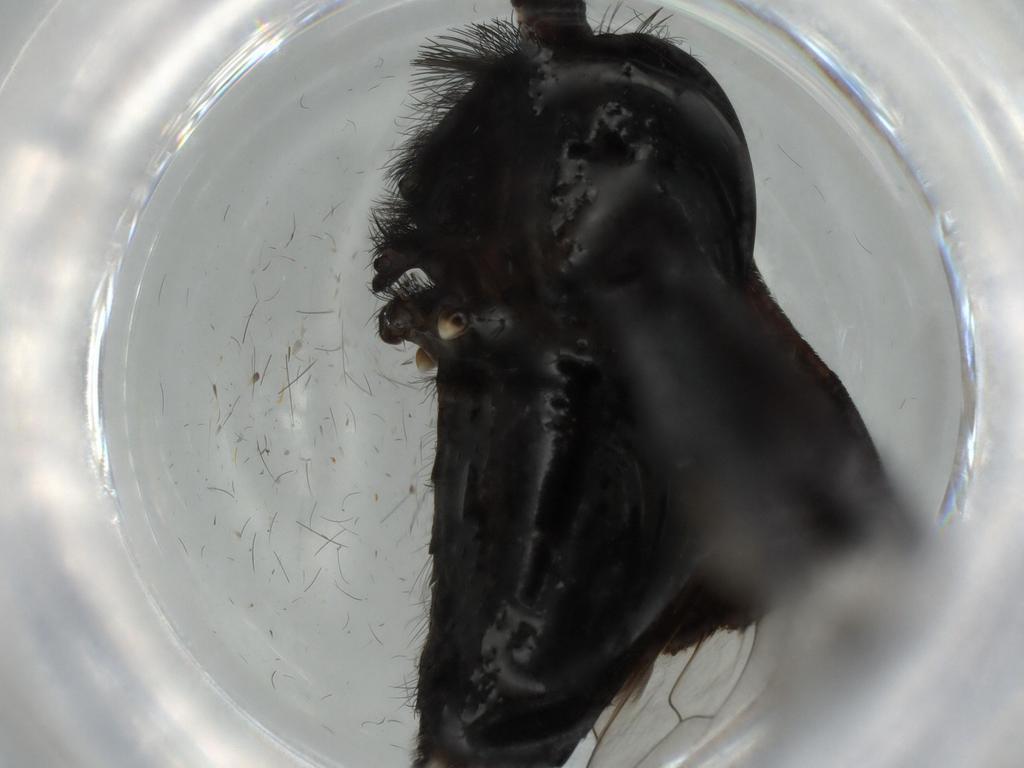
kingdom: Animalia
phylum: Arthropoda
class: Insecta
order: Diptera
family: Bombyliidae
